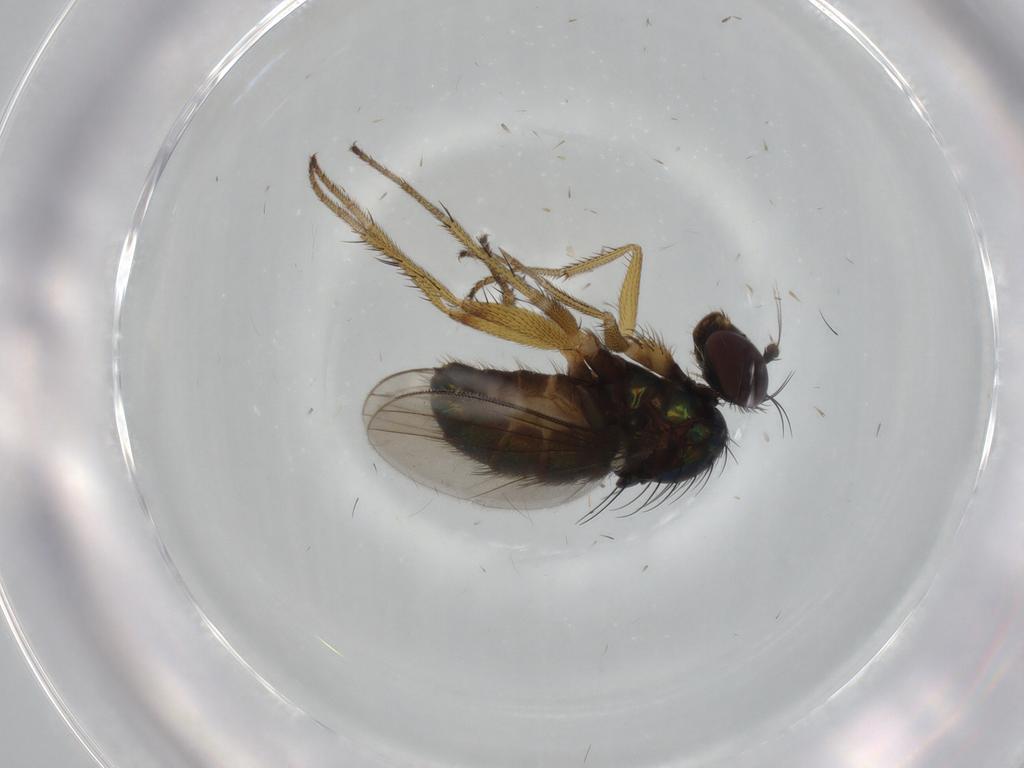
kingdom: Animalia
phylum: Arthropoda
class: Insecta
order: Diptera
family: Dolichopodidae
